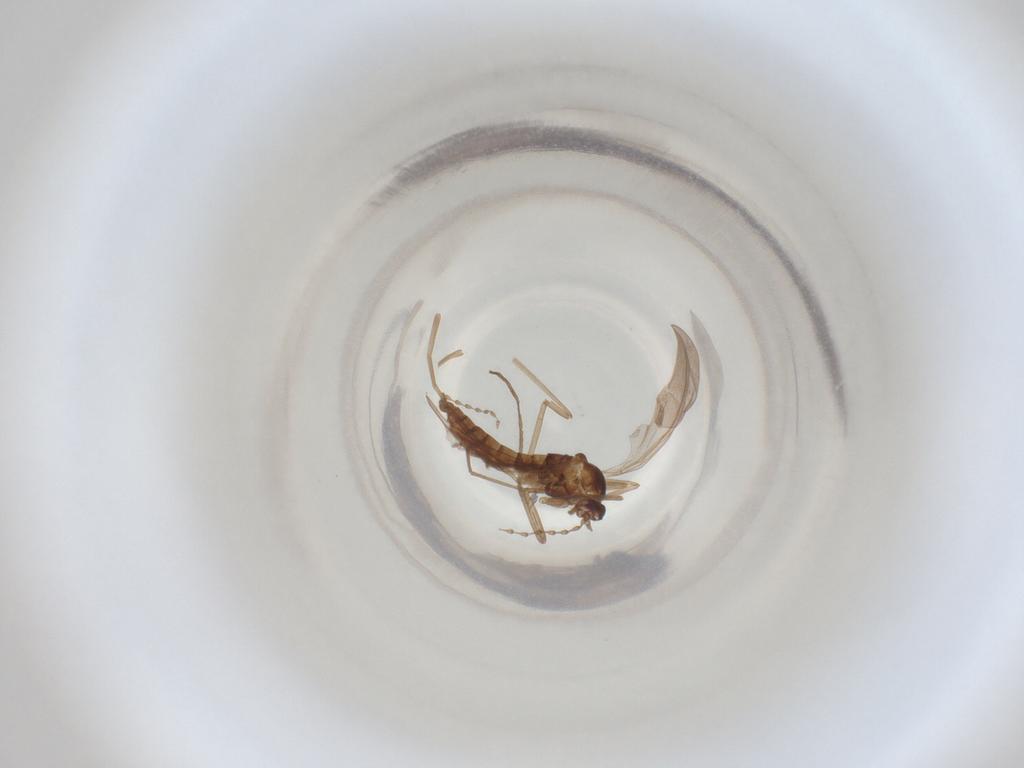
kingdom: Animalia
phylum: Arthropoda
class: Insecta
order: Diptera
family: Cecidomyiidae
